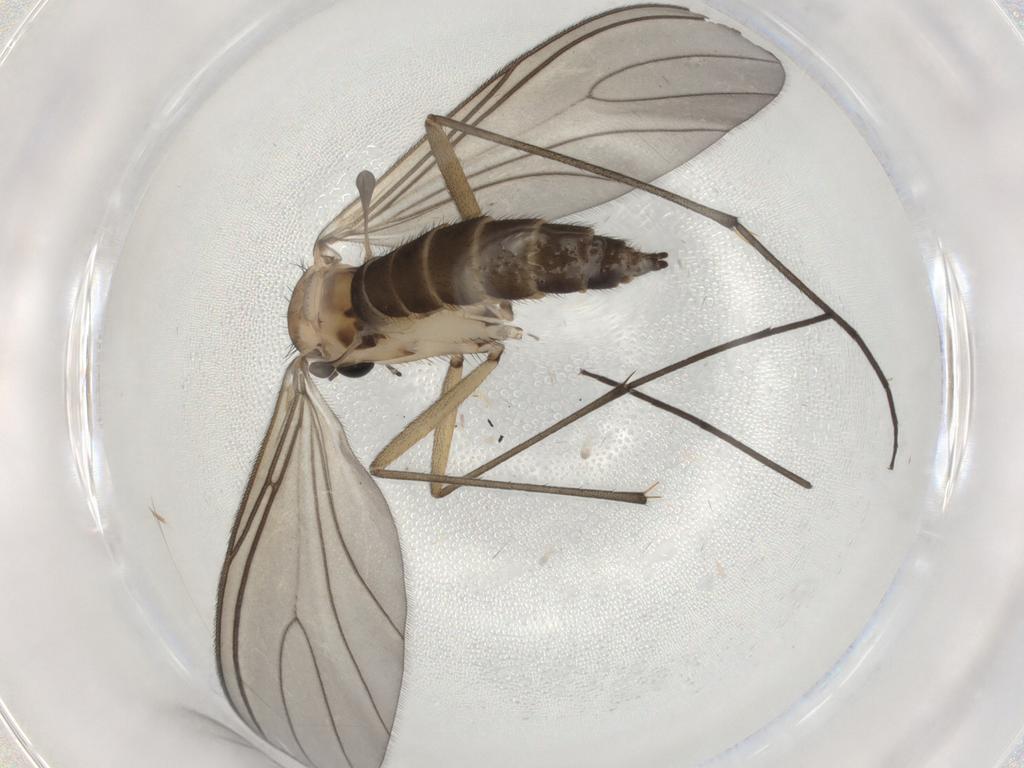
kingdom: Animalia
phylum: Arthropoda
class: Insecta
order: Diptera
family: Sciaridae
